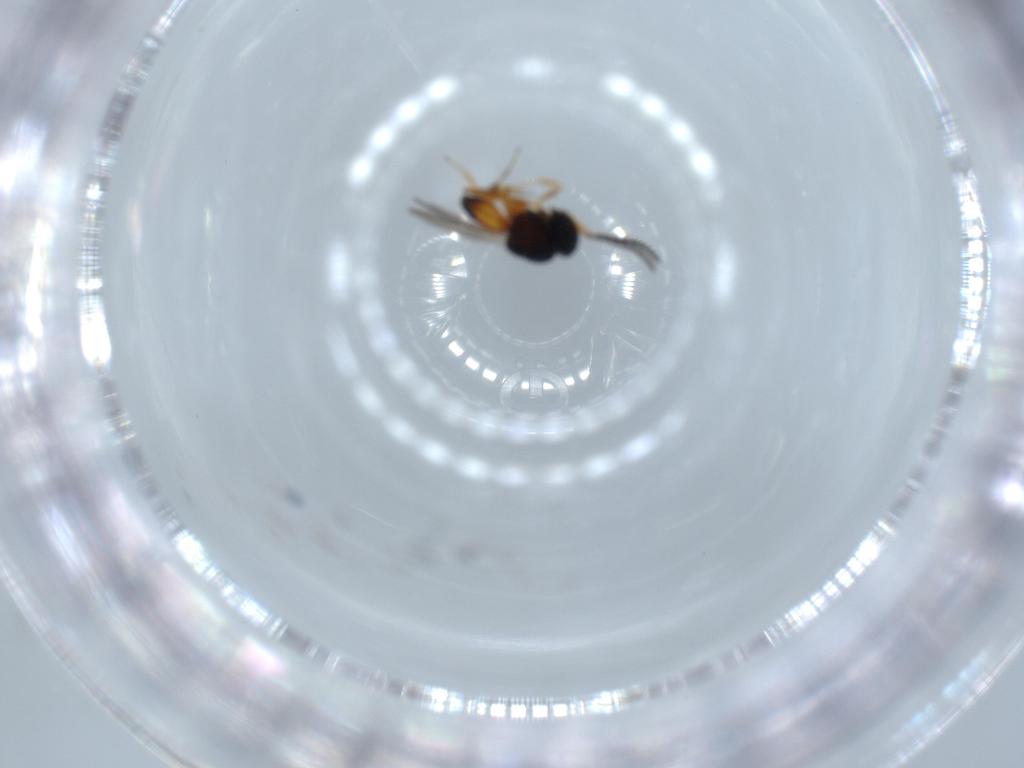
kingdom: Animalia
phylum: Arthropoda
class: Insecta
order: Hymenoptera
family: Scelionidae
